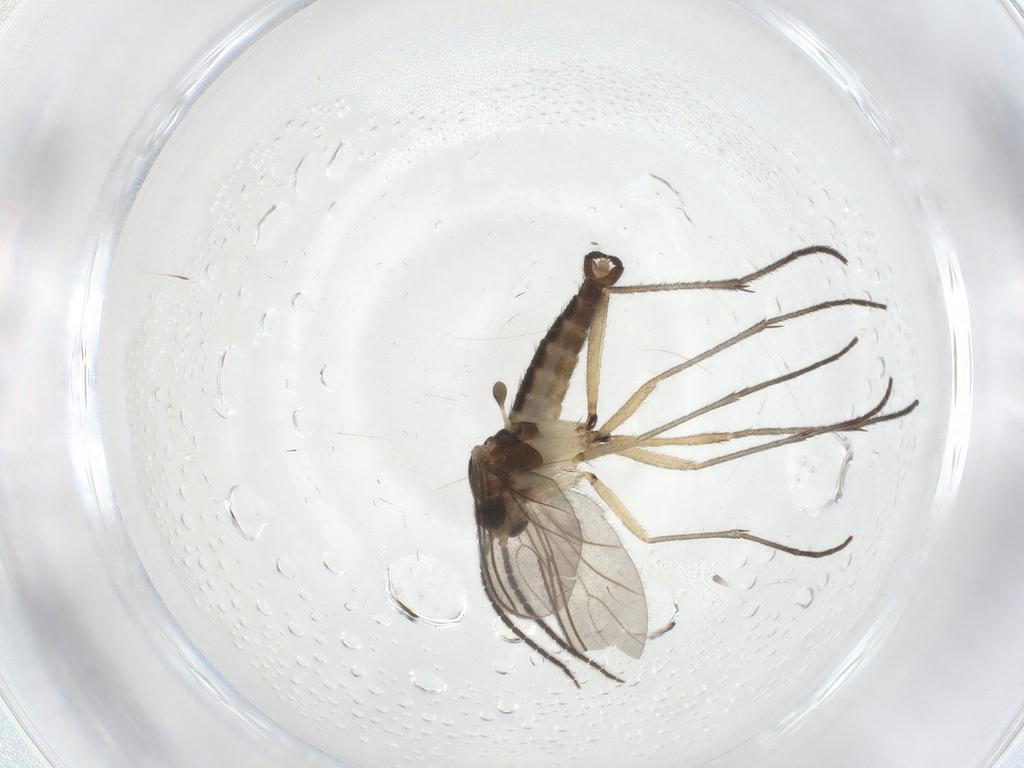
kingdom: Animalia
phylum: Arthropoda
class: Insecta
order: Diptera
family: Sciaridae
